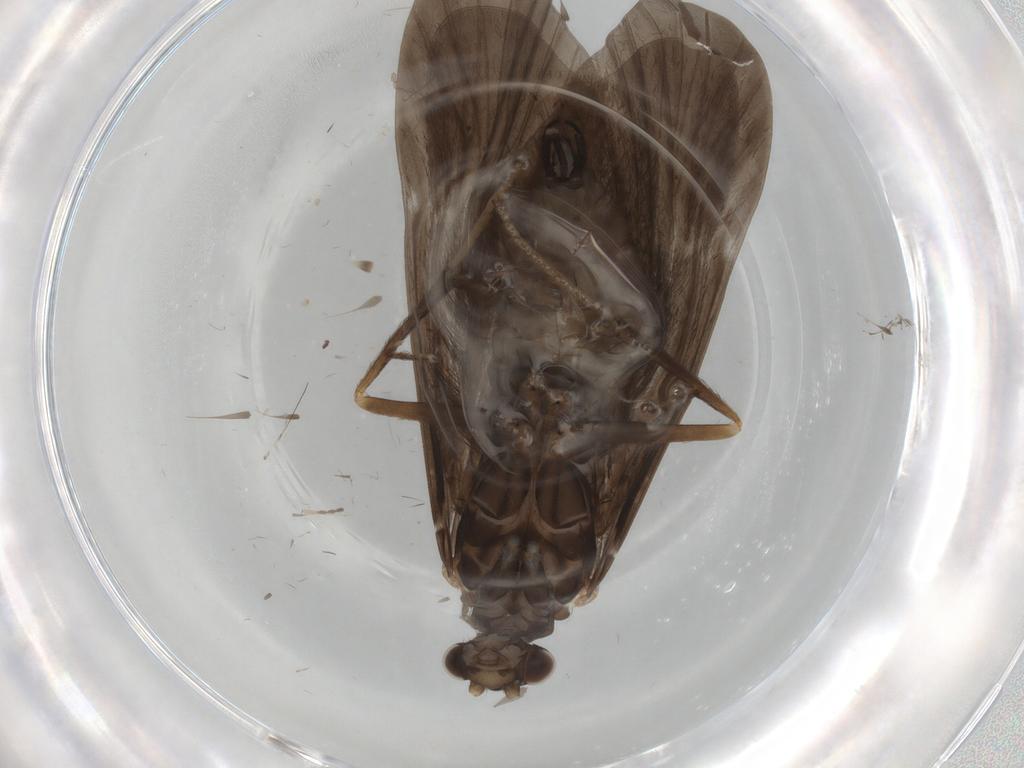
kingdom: Animalia
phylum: Arthropoda
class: Insecta
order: Trichoptera
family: Hydropsychidae
